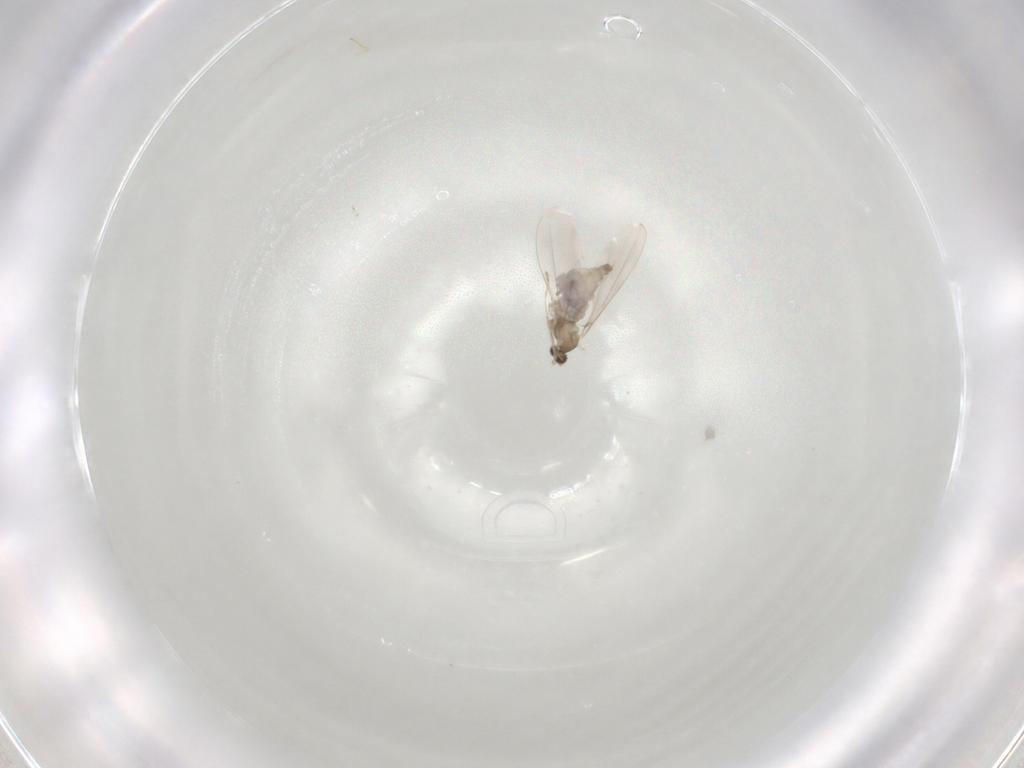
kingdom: Animalia
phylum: Arthropoda
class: Insecta
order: Diptera
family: Cecidomyiidae
